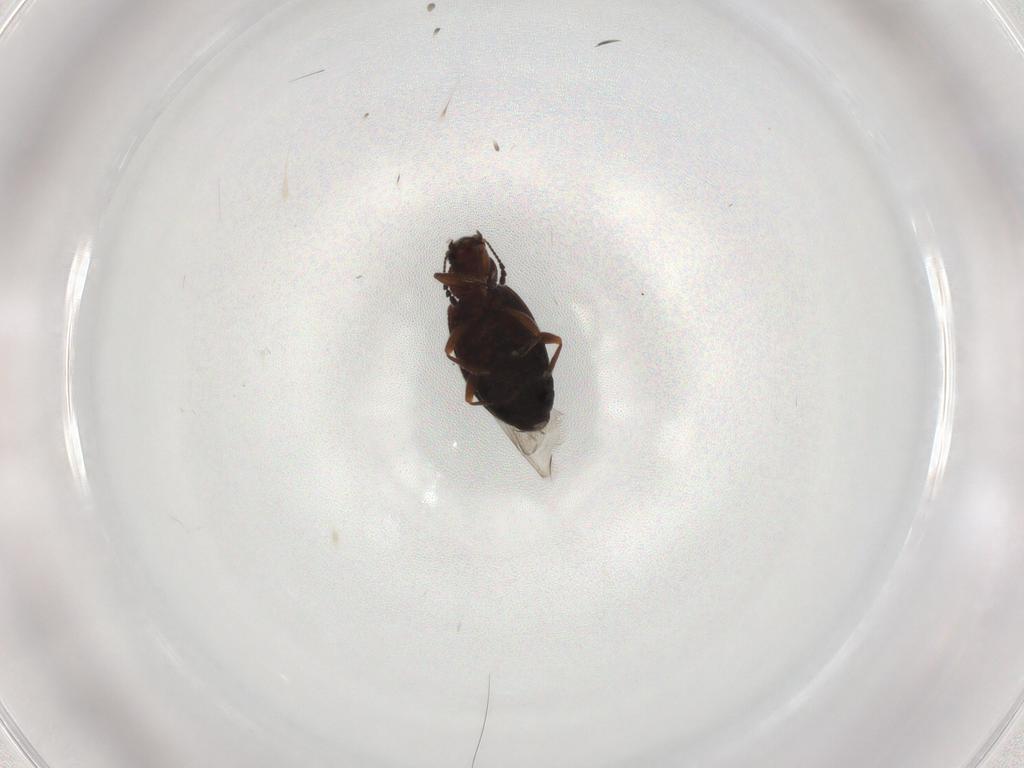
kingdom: Animalia
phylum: Arthropoda
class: Insecta
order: Coleoptera
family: Latridiidae
